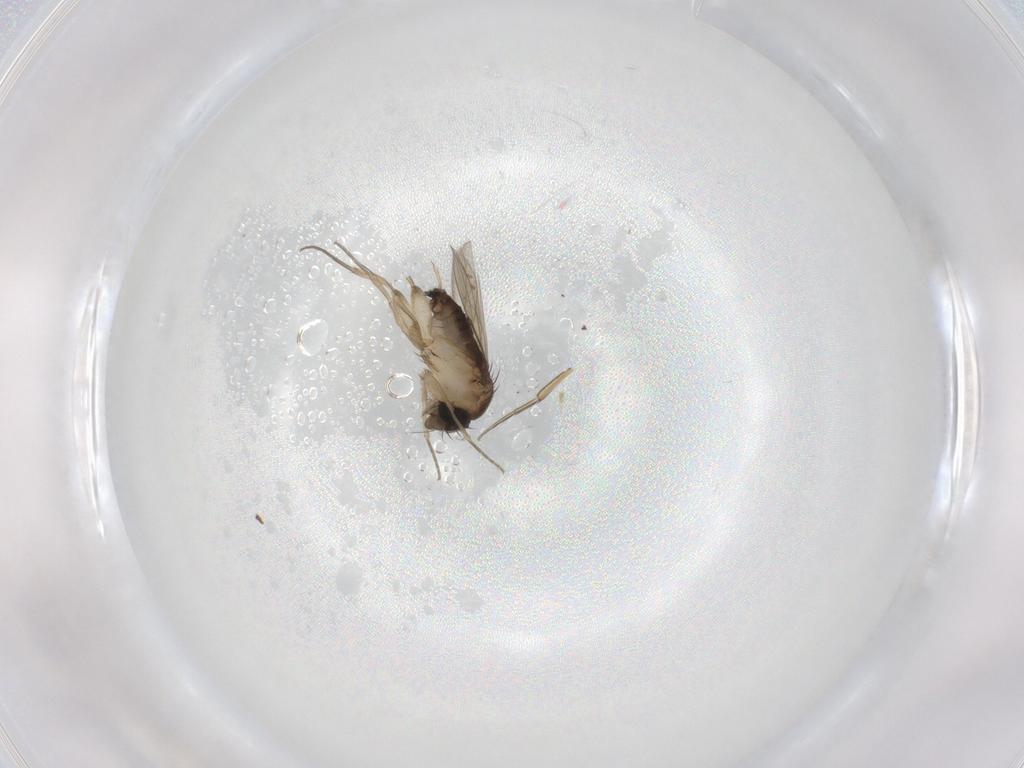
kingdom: Animalia
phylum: Arthropoda
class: Insecta
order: Diptera
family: Phoridae
